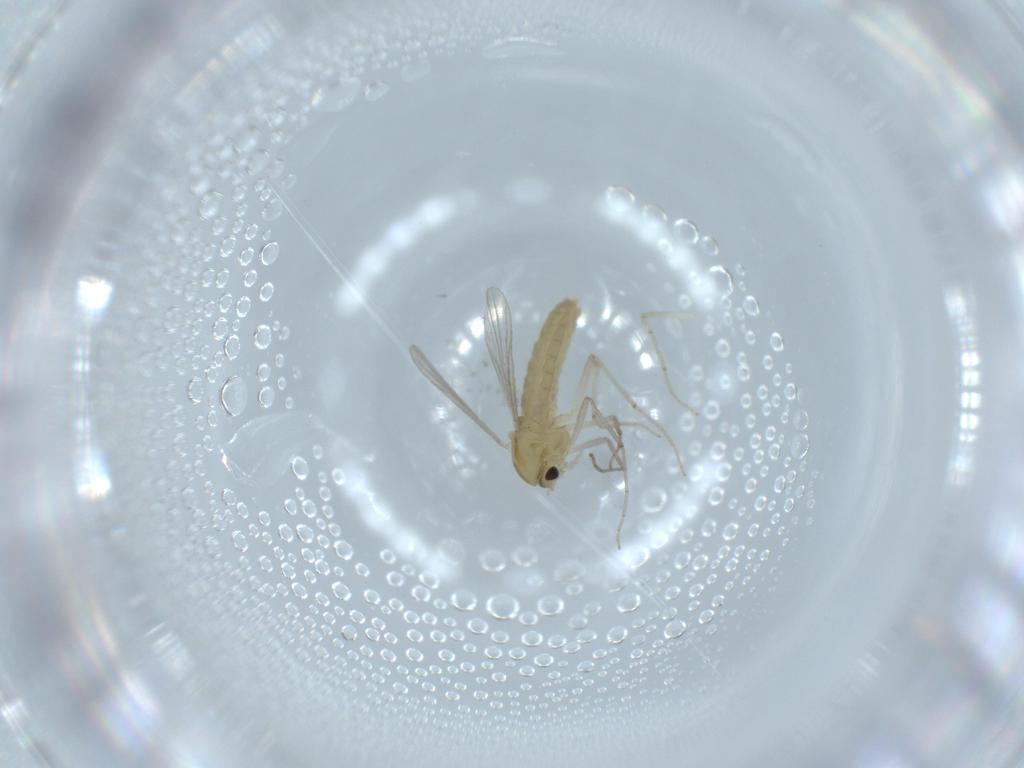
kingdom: Animalia
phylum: Arthropoda
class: Insecta
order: Diptera
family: Chironomidae
